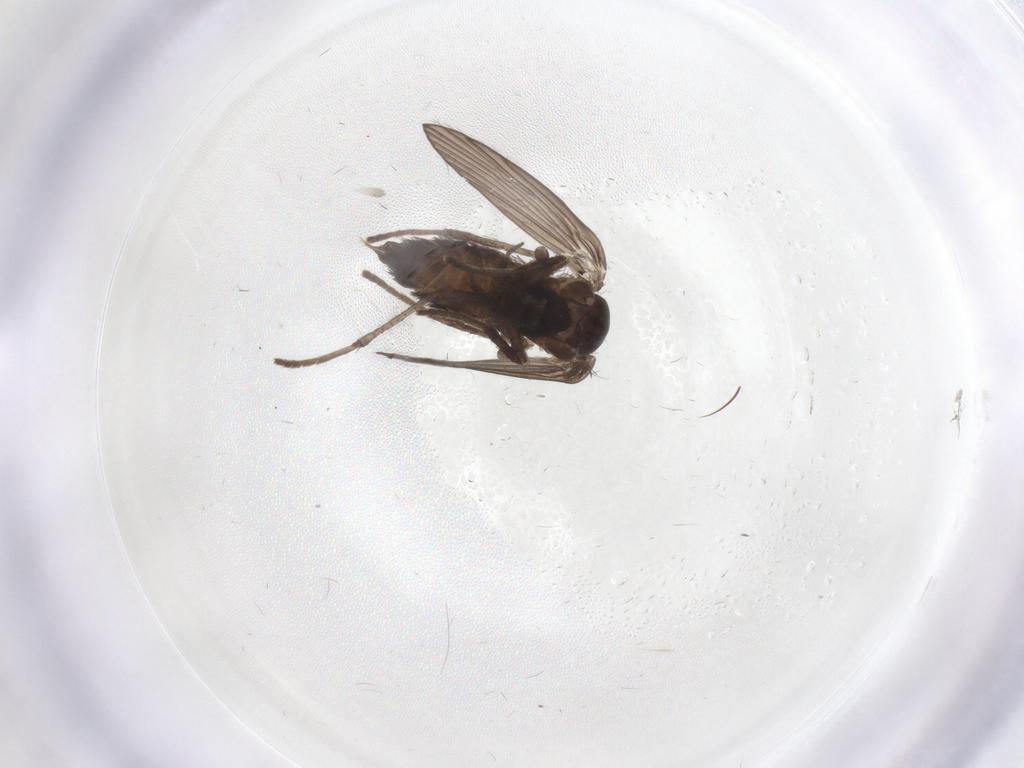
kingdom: Animalia
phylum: Arthropoda
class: Insecta
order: Diptera
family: Psychodidae
